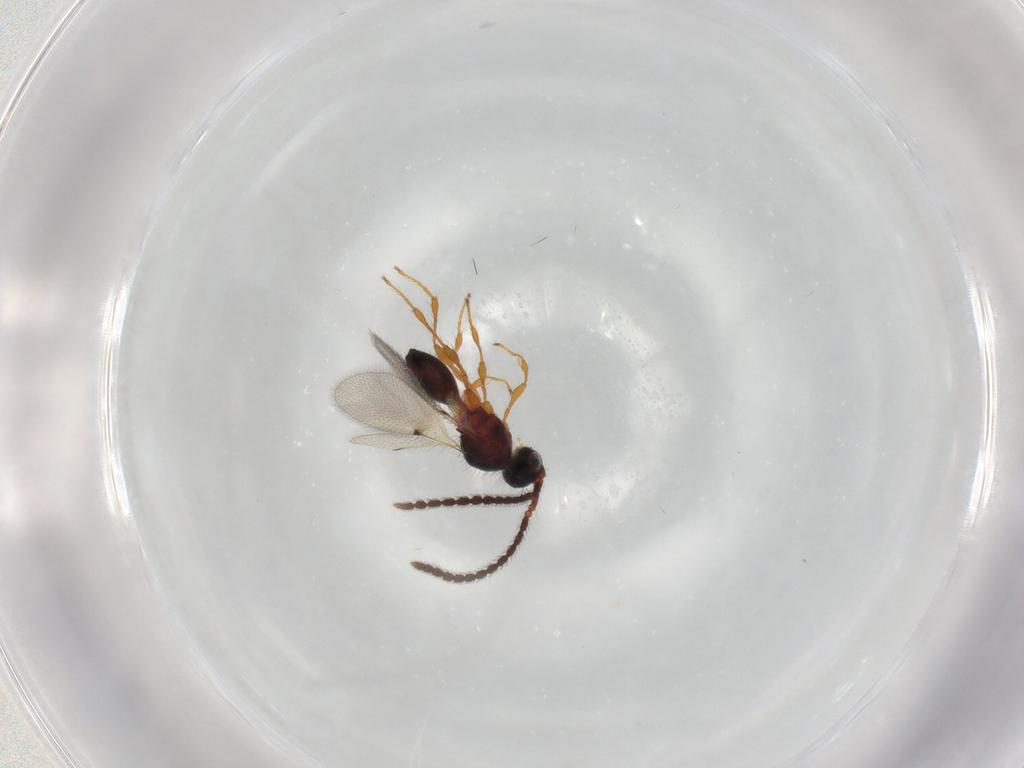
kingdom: Animalia
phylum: Arthropoda
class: Insecta
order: Hymenoptera
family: Diapriidae
